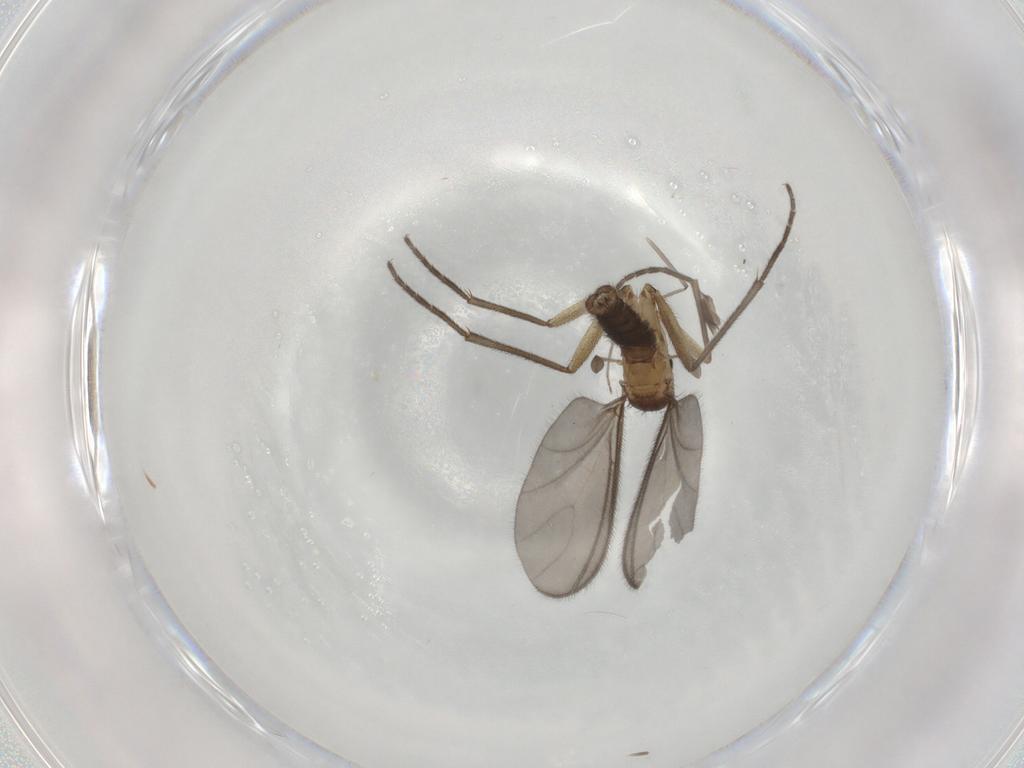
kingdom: Animalia
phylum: Arthropoda
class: Insecta
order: Diptera
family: Sciaridae
